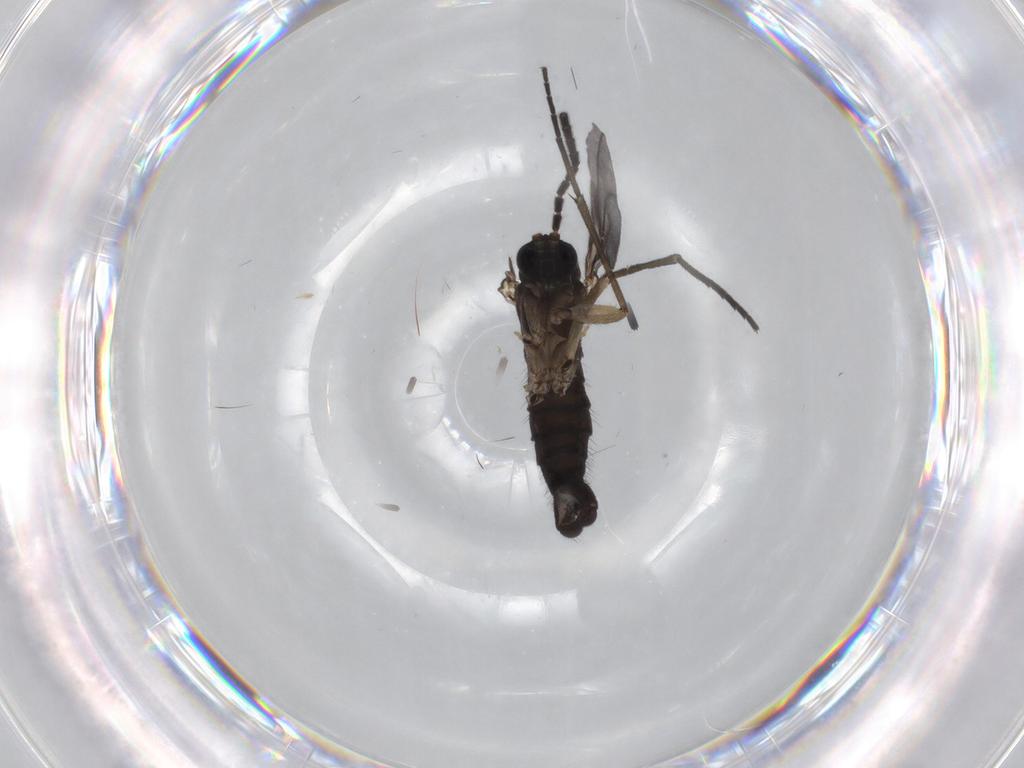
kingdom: Animalia
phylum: Arthropoda
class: Insecta
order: Diptera
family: Sciaridae
